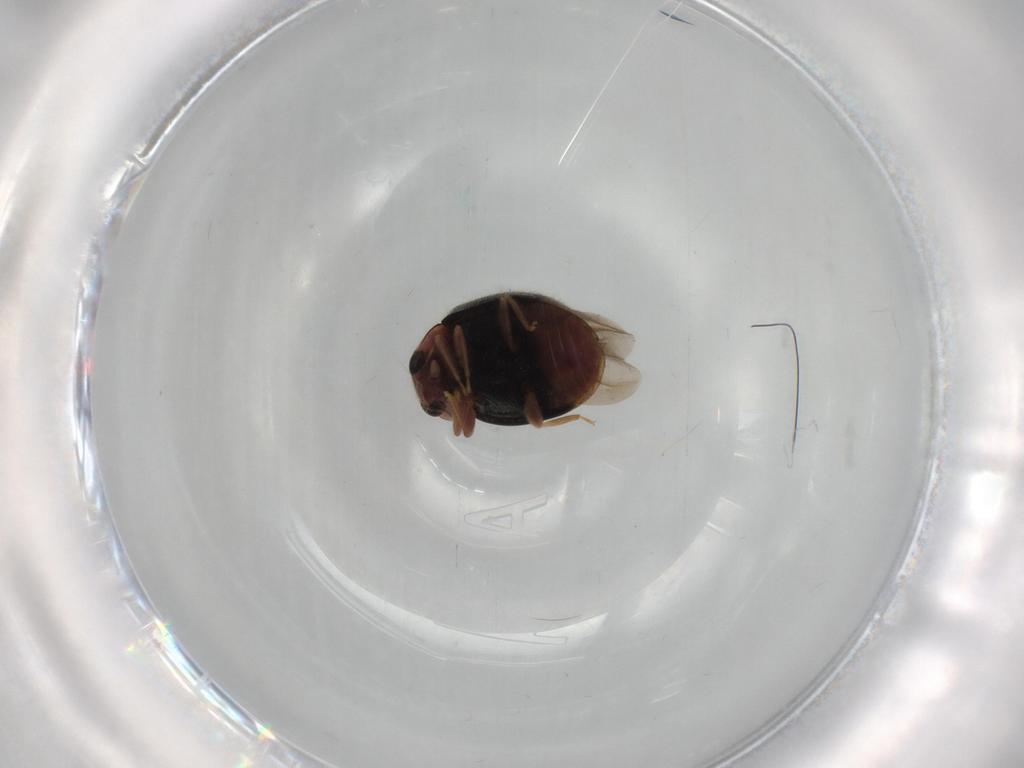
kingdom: Animalia
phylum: Arthropoda
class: Insecta
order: Coleoptera
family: Coccinellidae
